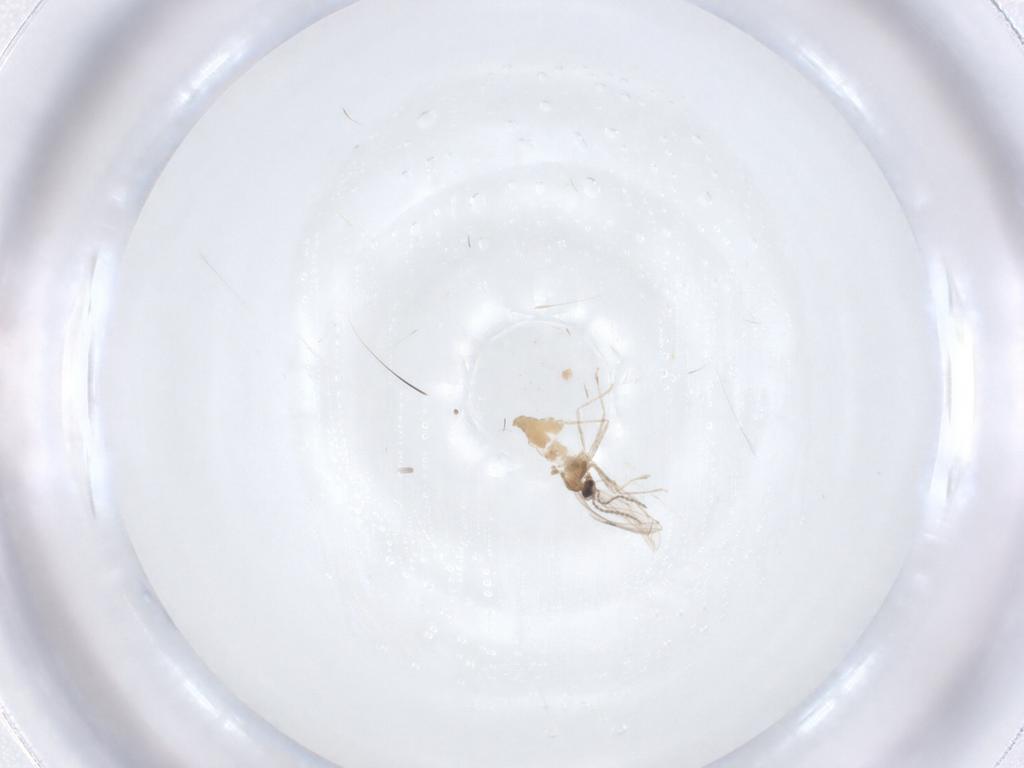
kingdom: Animalia
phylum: Arthropoda
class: Insecta
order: Diptera
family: Cecidomyiidae
